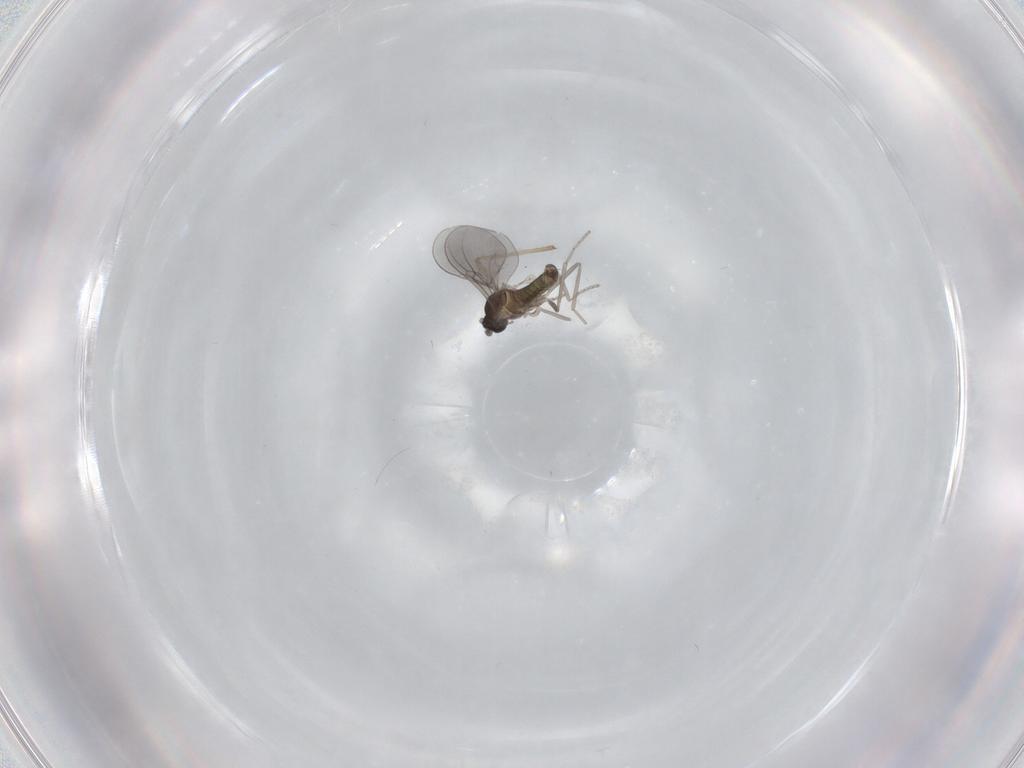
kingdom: Animalia
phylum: Arthropoda
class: Insecta
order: Diptera
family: Chironomidae
